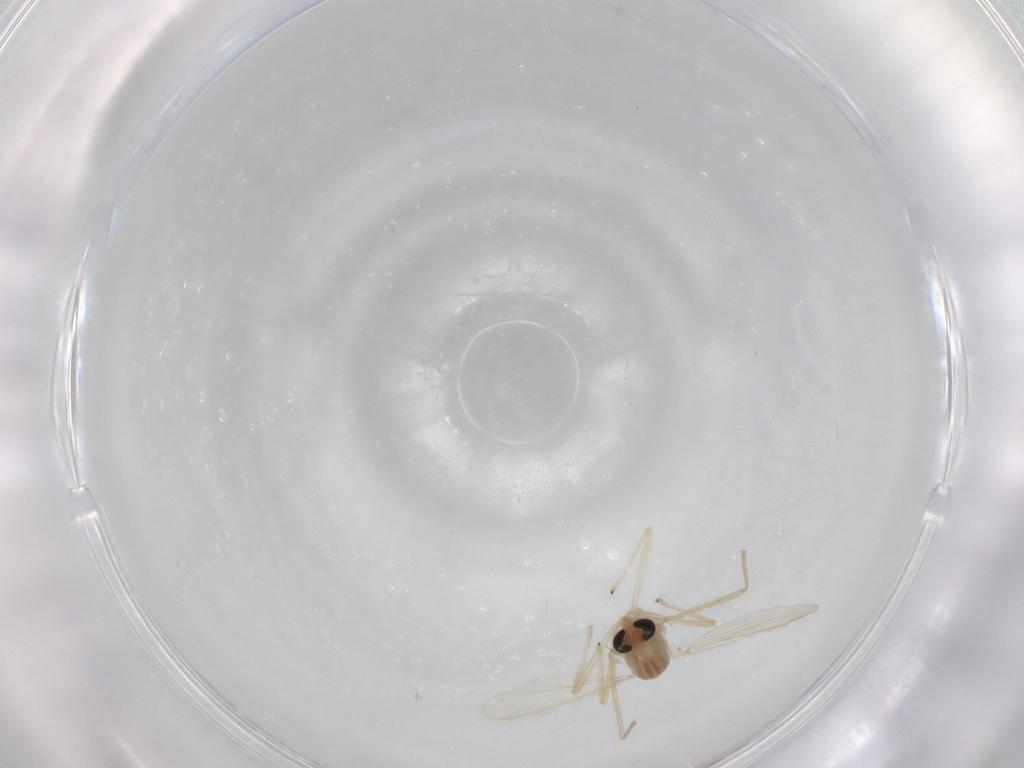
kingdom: Animalia
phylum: Arthropoda
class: Insecta
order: Diptera
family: Chironomidae
